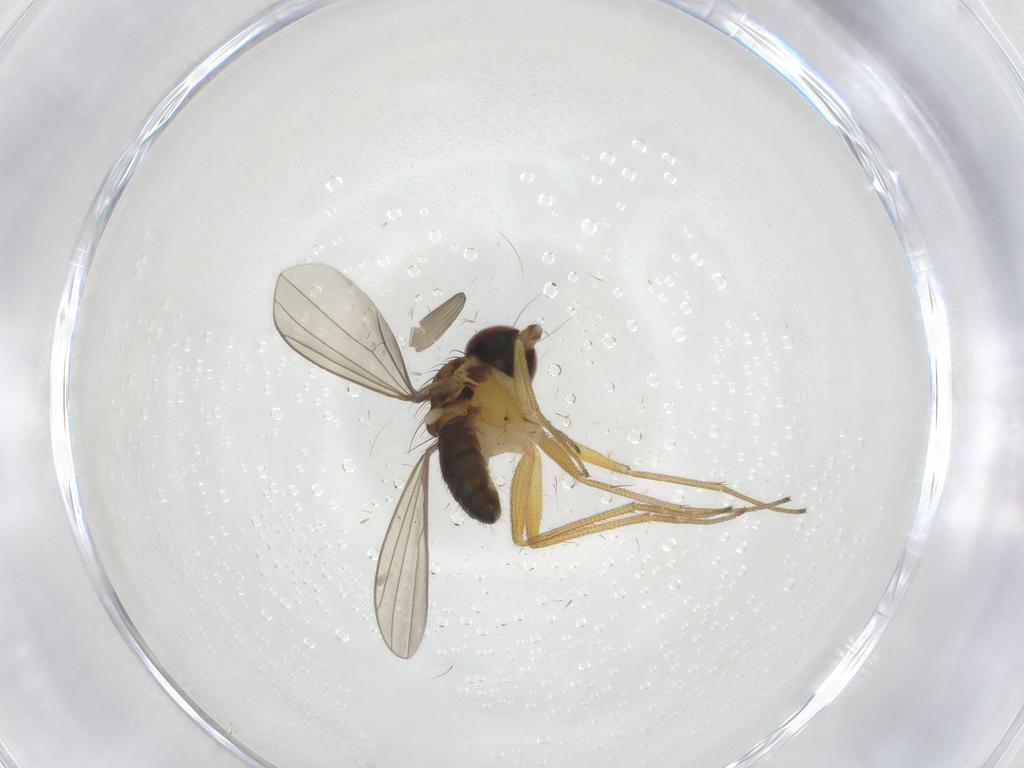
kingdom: Animalia
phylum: Arthropoda
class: Insecta
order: Diptera
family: Limoniidae
